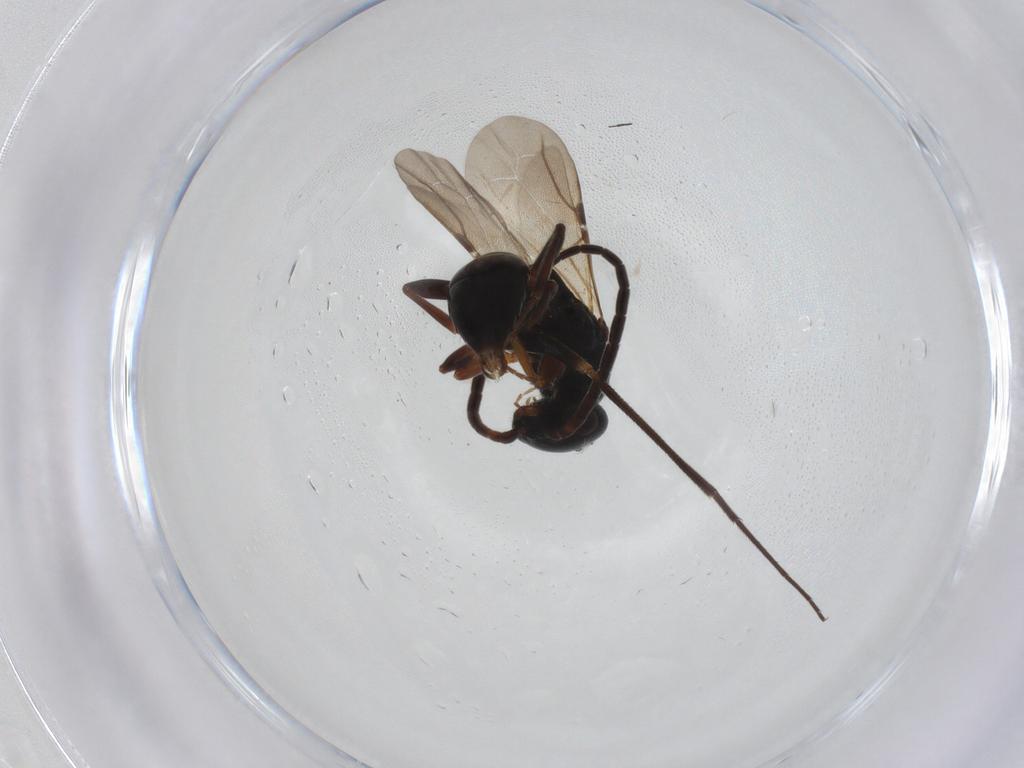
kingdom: Animalia
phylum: Arthropoda
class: Insecta
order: Hymenoptera
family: Bethylidae
